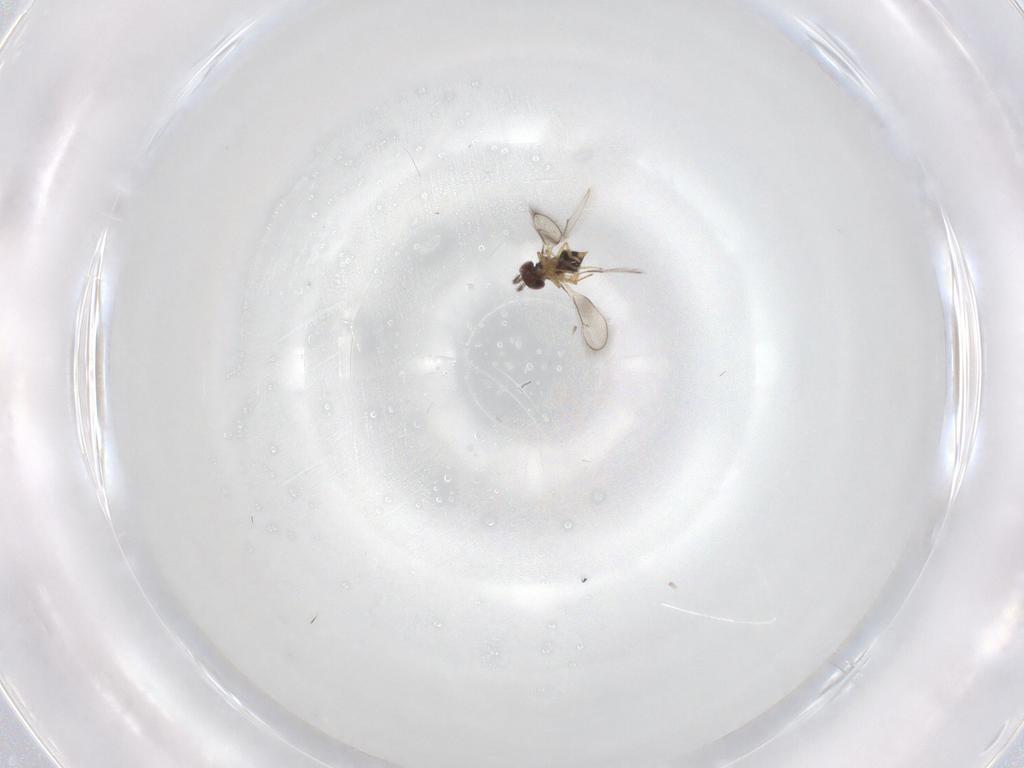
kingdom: Animalia
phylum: Arthropoda
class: Insecta
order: Hymenoptera
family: Eulophidae
